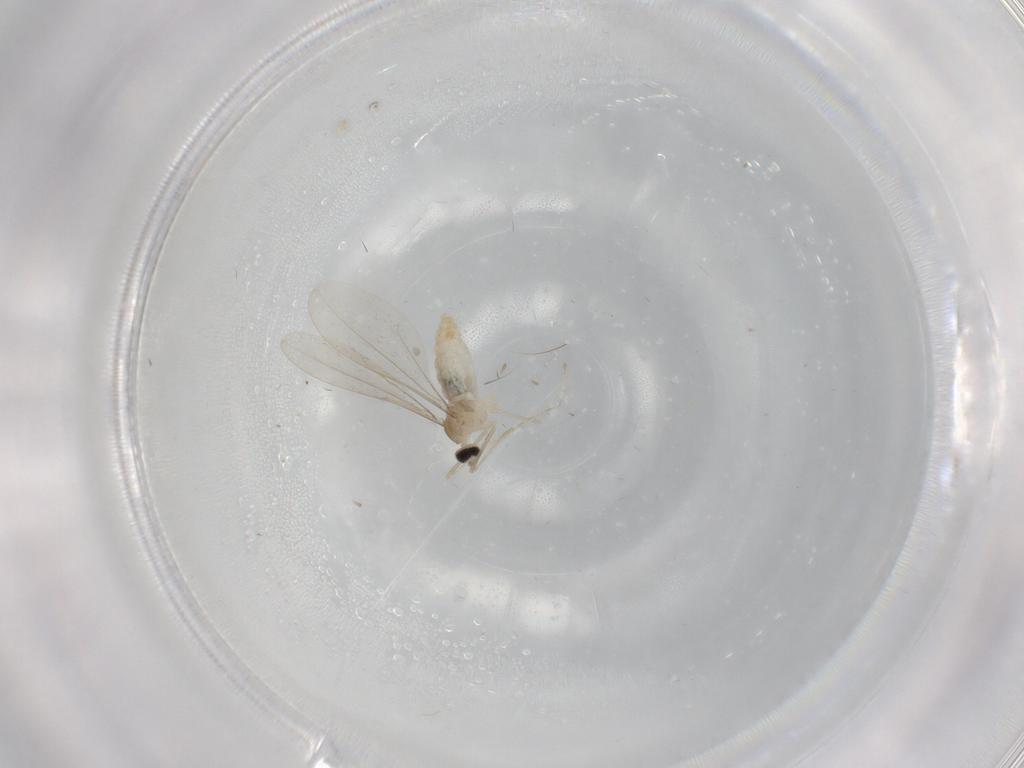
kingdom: Animalia
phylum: Arthropoda
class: Insecta
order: Diptera
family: Cecidomyiidae
